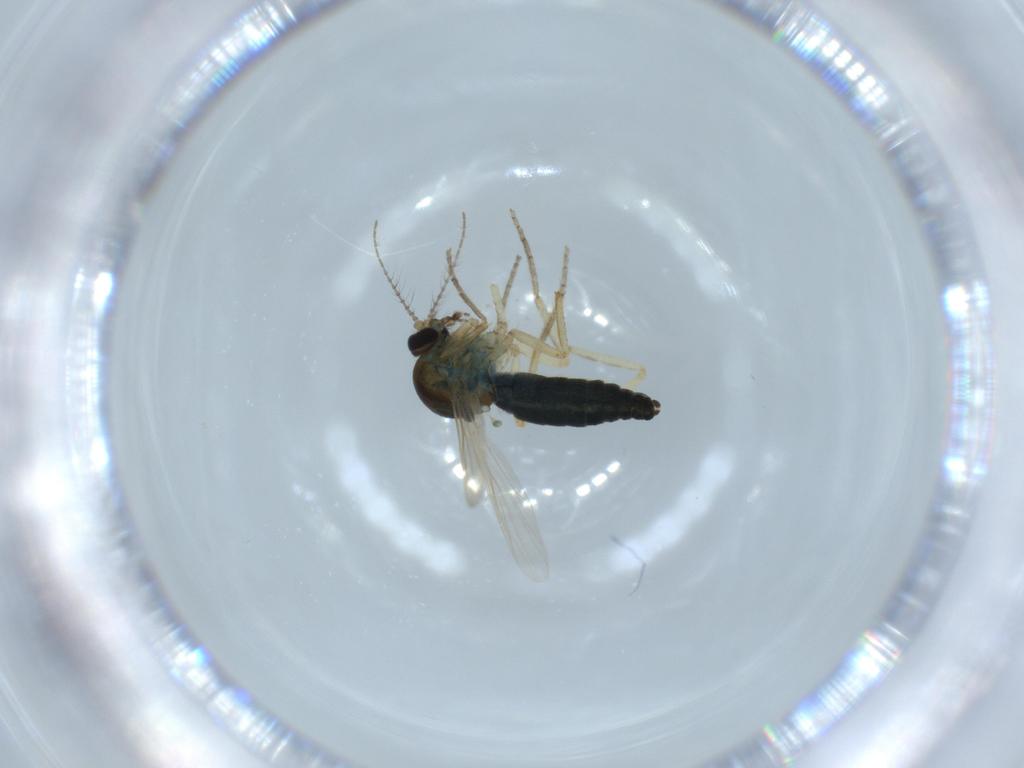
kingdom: Animalia
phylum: Arthropoda
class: Insecta
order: Diptera
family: Ceratopogonidae
